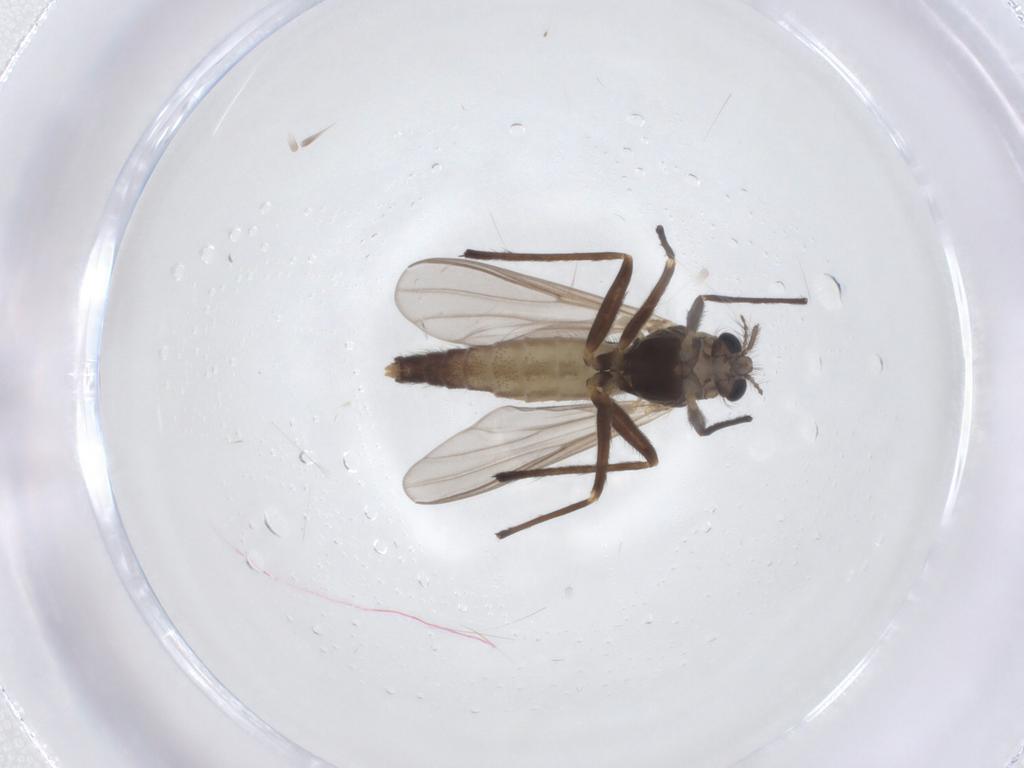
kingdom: Animalia
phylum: Arthropoda
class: Insecta
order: Diptera
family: Chironomidae
